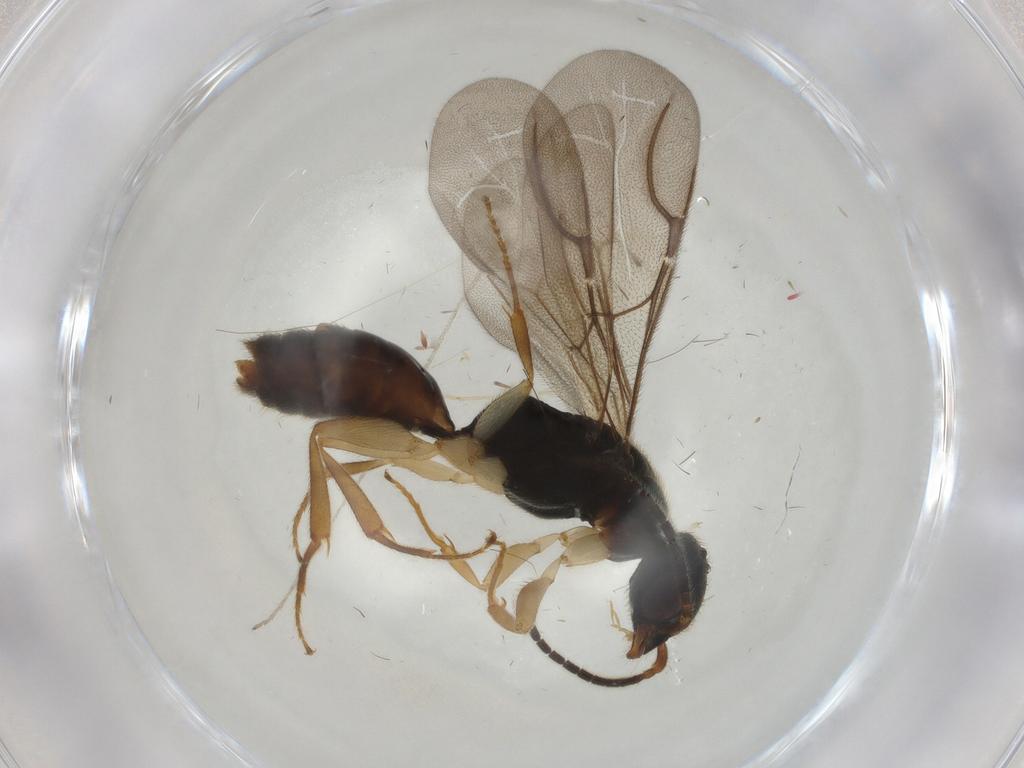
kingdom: Animalia
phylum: Arthropoda
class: Insecta
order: Hymenoptera
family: Bethylidae
